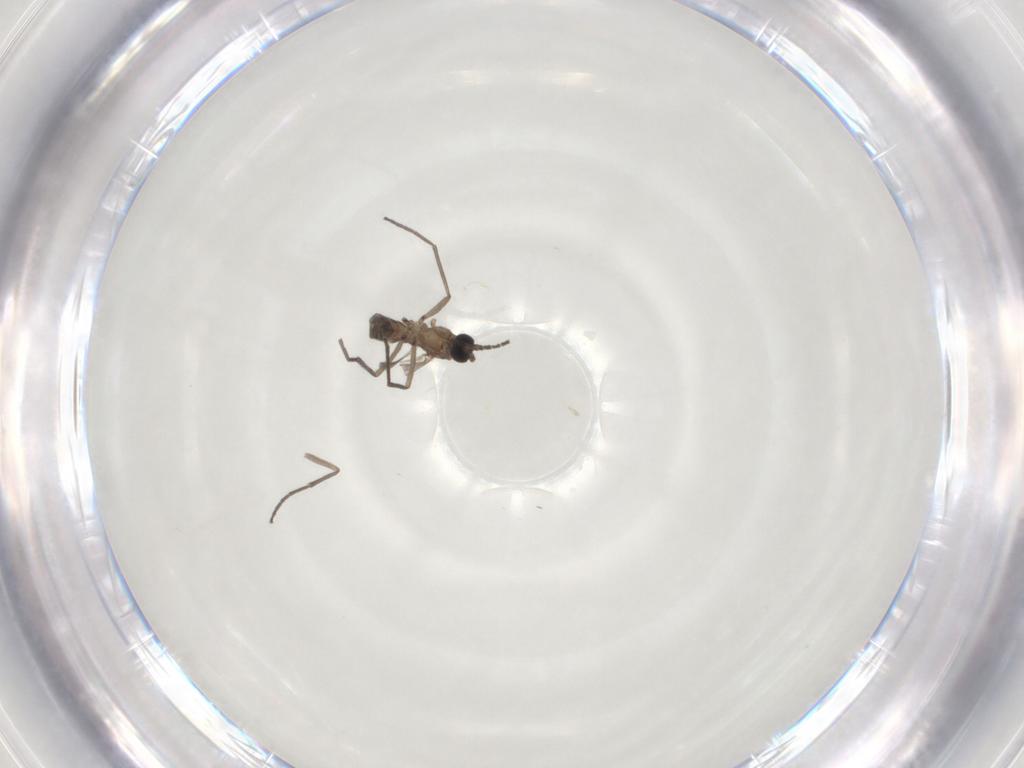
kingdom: Animalia
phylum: Arthropoda
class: Insecta
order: Diptera
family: Sciaridae
